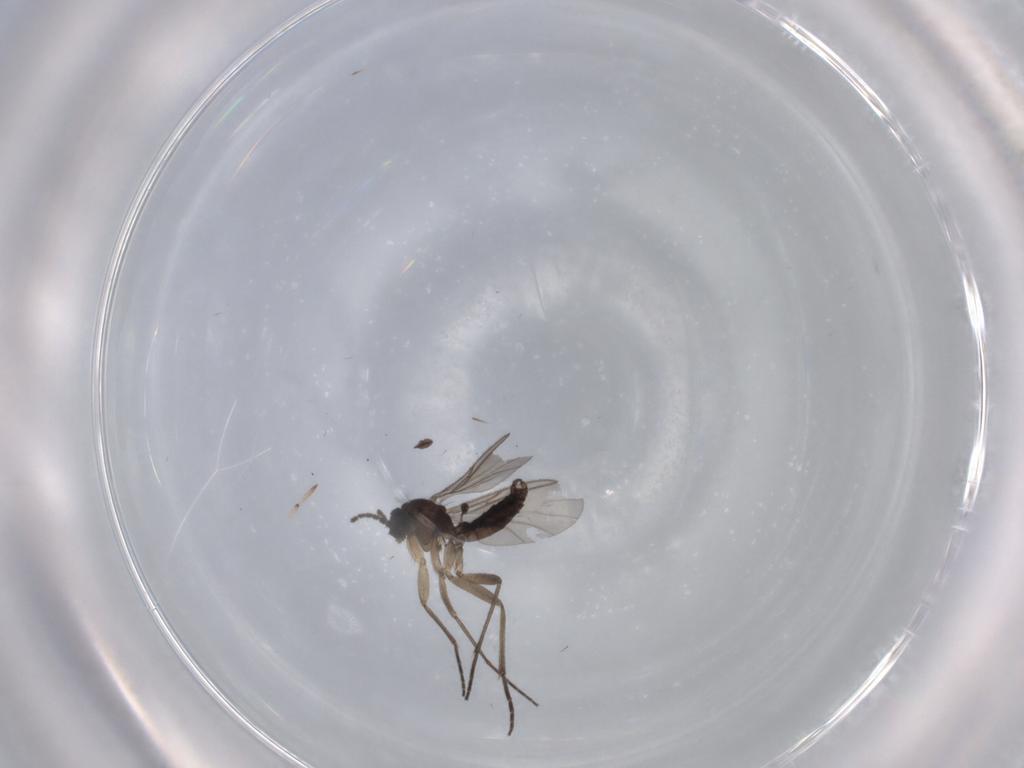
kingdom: Animalia
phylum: Arthropoda
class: Insecta
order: Diptera
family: Sciaridae
